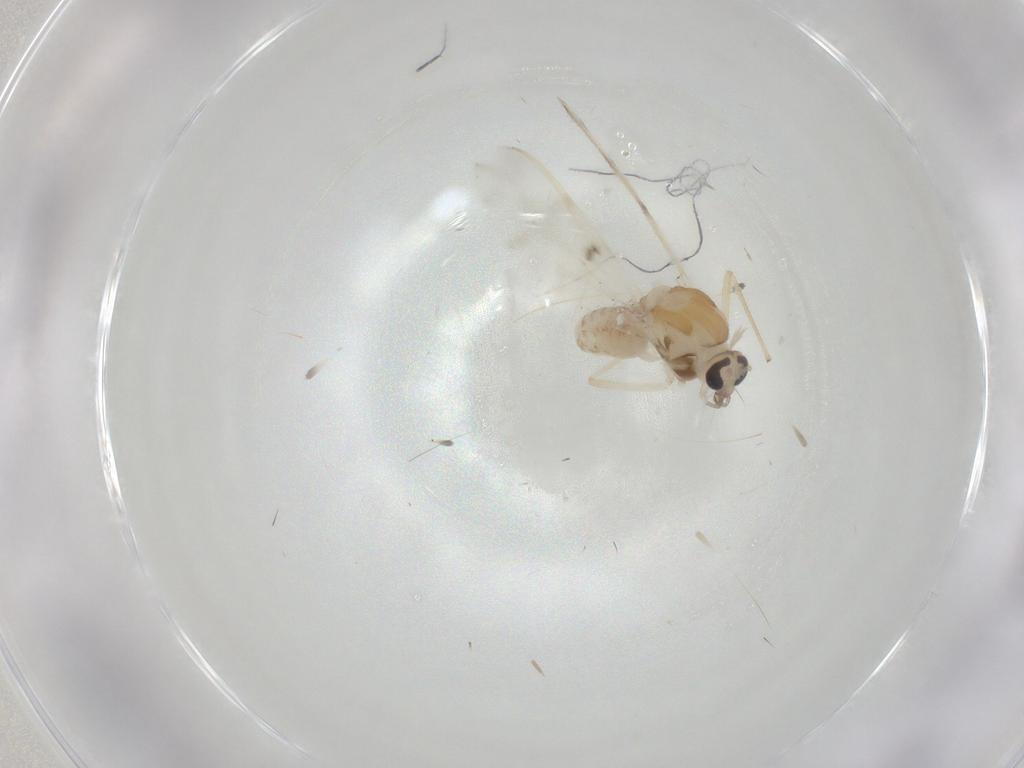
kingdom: Animalia
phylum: Arthropoda
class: Insecta
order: Diptera
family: Chironomidae
